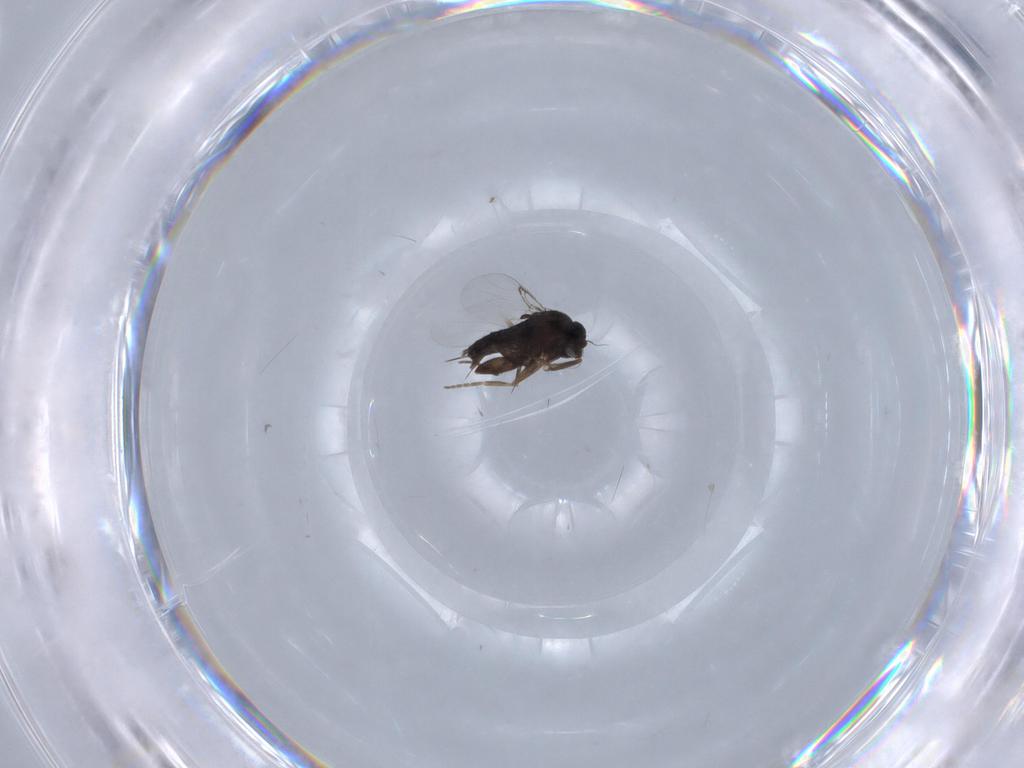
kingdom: Animalia
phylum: Arthropoda
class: Insecta
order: Diptera
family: Phoridae
